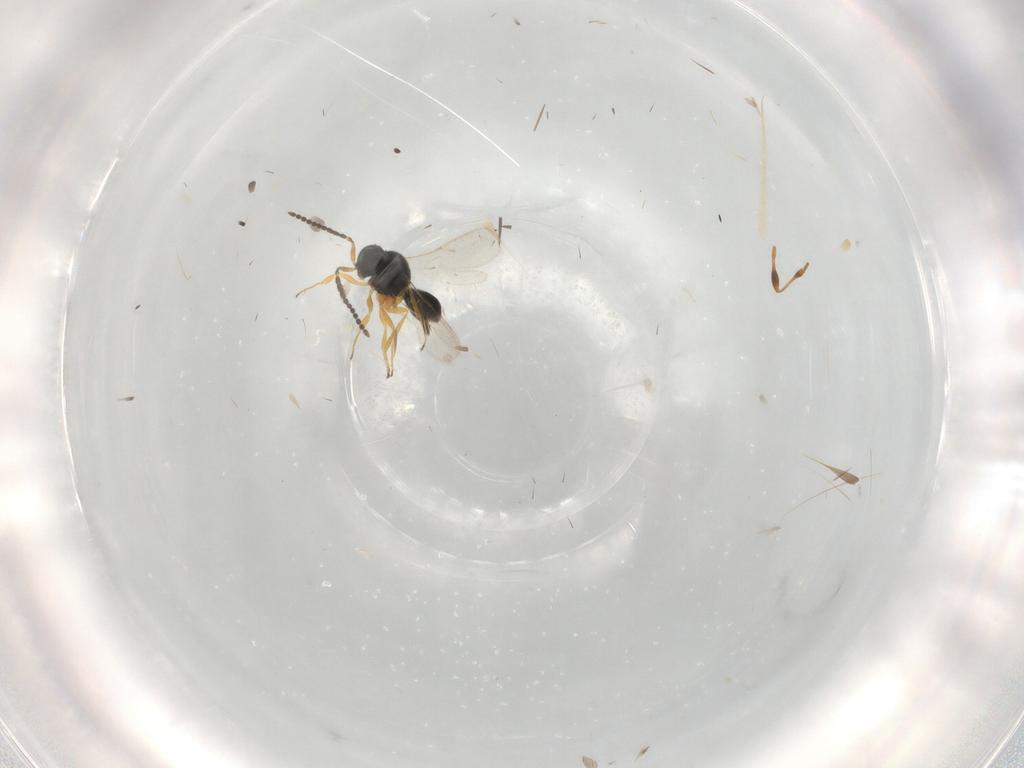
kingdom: Animalia
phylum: Arthropoda
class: Insecta
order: Hymenoptera
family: Scelionidae
